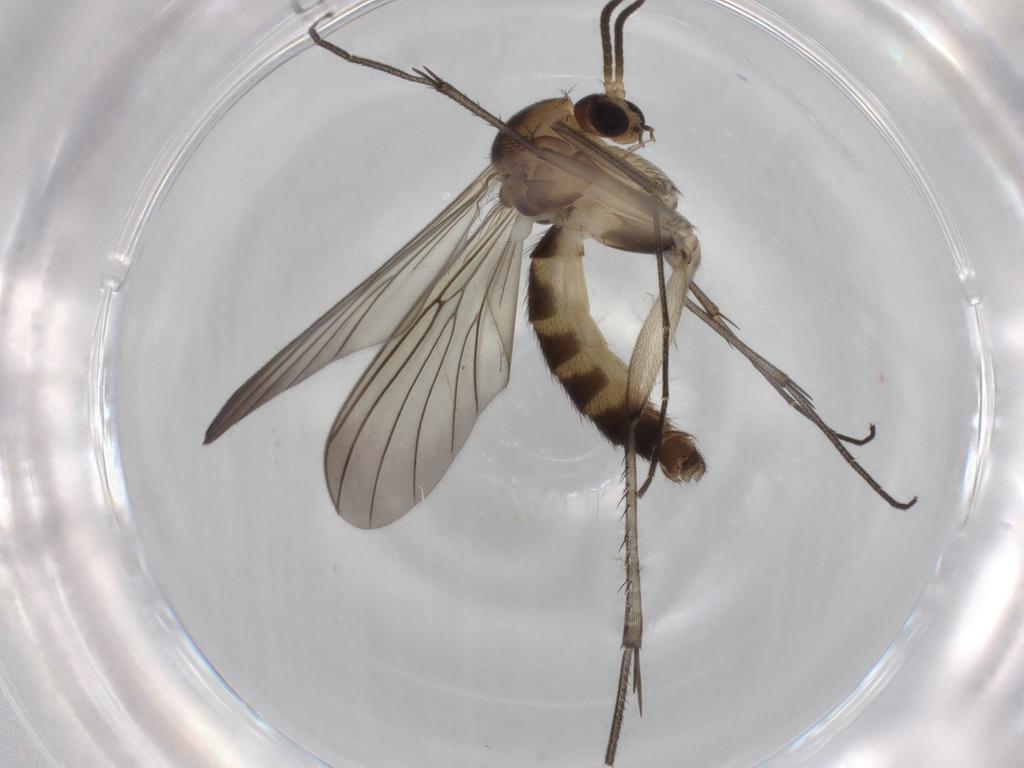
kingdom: Animalia
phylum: Arthropoda
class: Insecta
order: Diptera
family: Mycetophilidae
